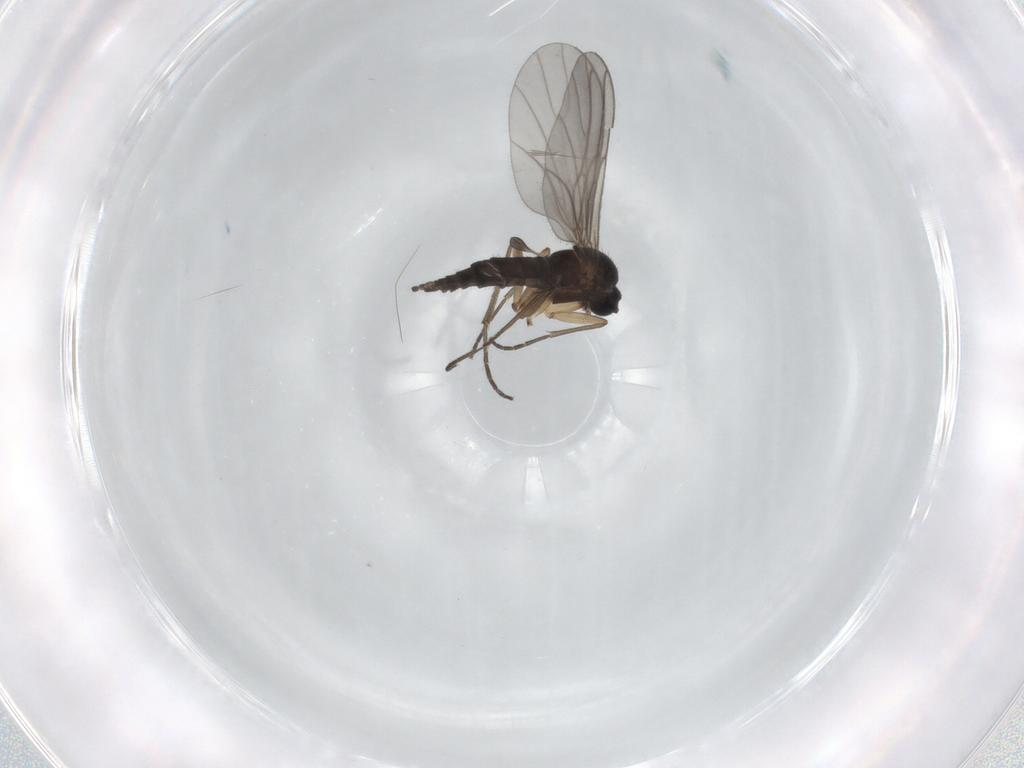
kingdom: Animalia
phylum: Arthropoda
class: Insecta
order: Diptera
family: Sciaridae
